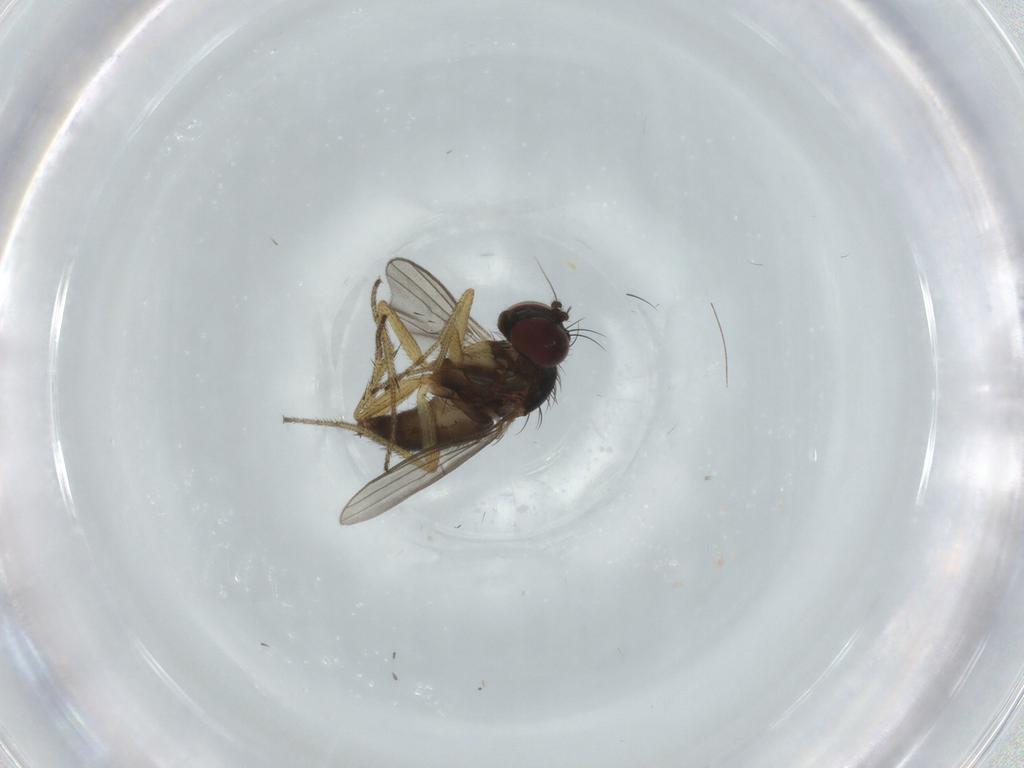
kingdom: Animalia
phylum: Arthropoda
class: Insecta
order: Diptera
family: Dolichopodidae
